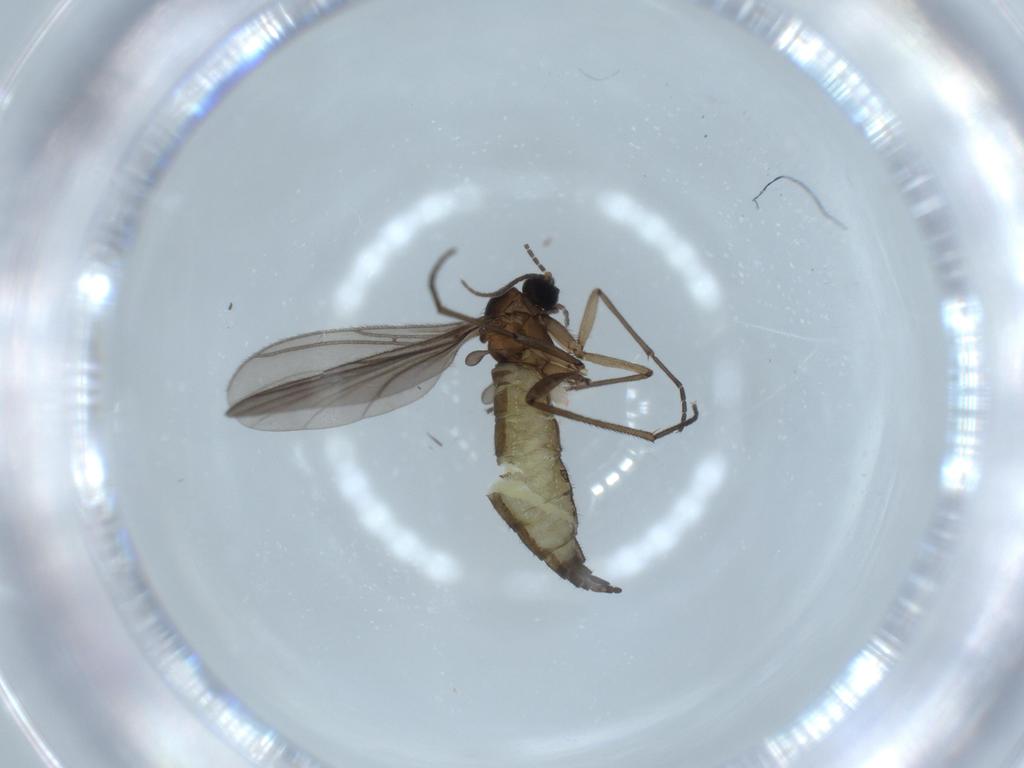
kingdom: Animalia
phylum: Arthropoda
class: Insecta
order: Diptera
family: Sciaridae
